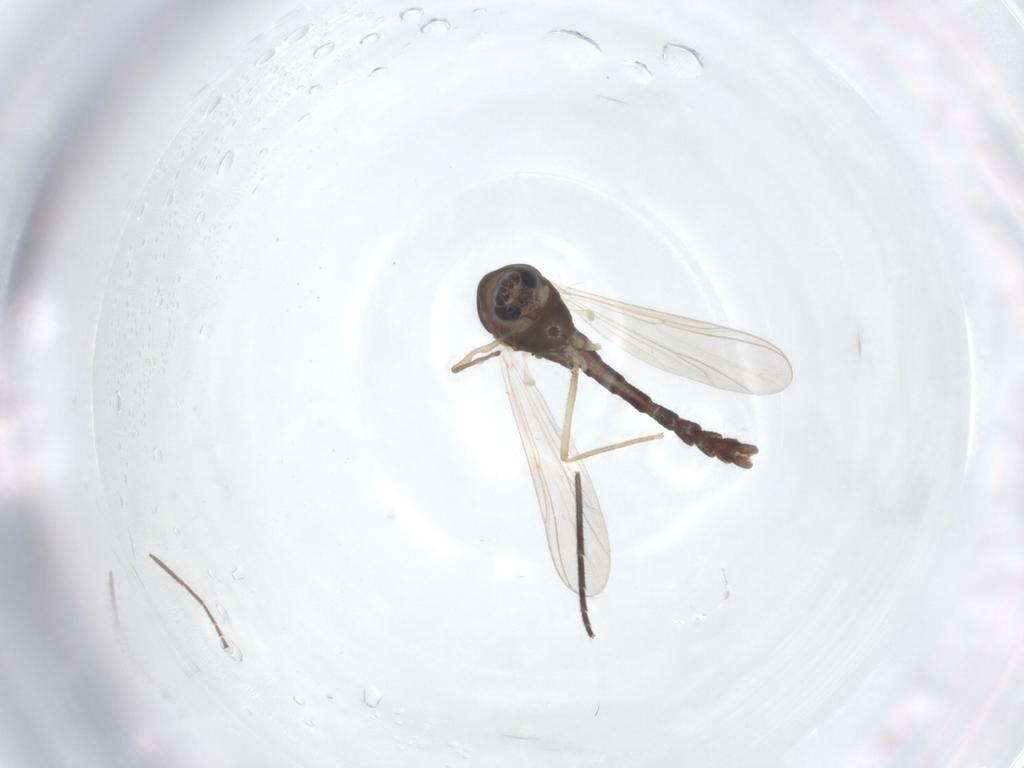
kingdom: Animalia
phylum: Arthropoda
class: Insecta
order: Diptera
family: Chironomidae
